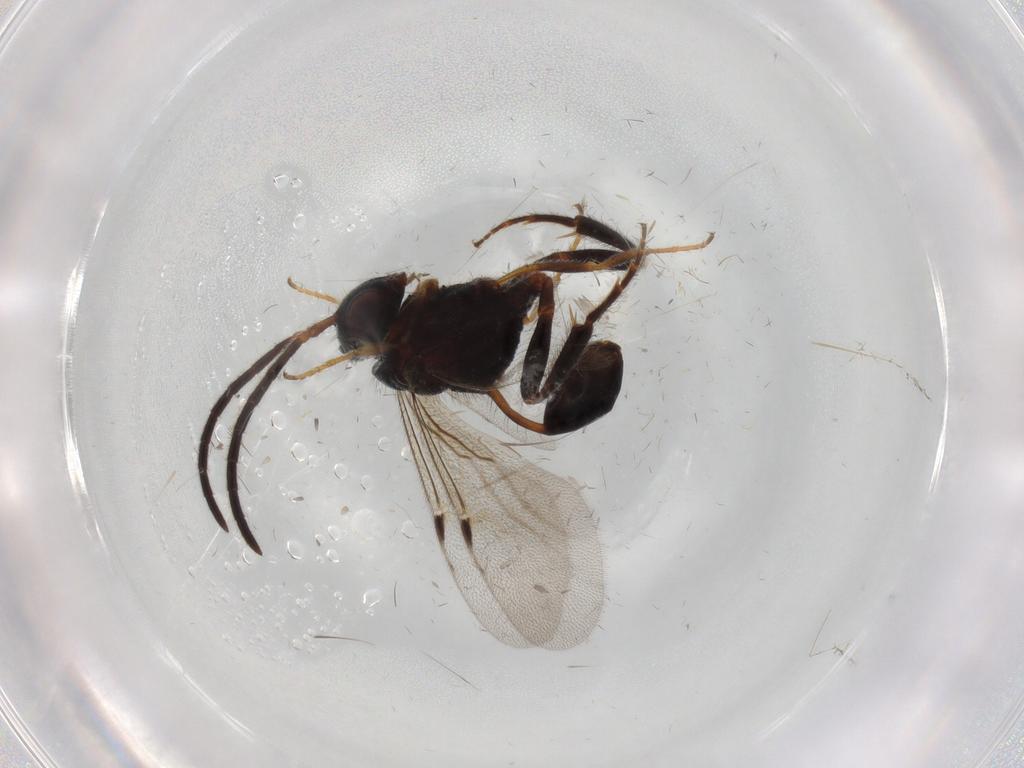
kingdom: Animalia
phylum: Arthropoda
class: Insecta
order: Hymenoptera
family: Evaniidae
